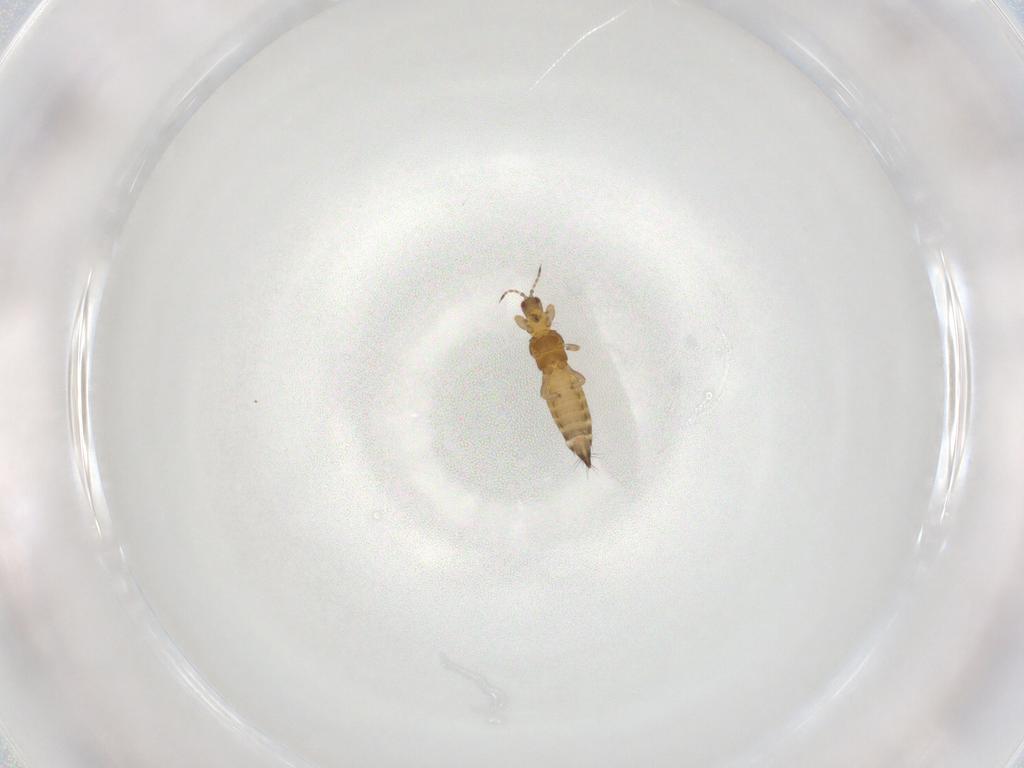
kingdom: Animalia
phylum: Arthropoda
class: Insecta
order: Thysanoptera
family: Thripidae
